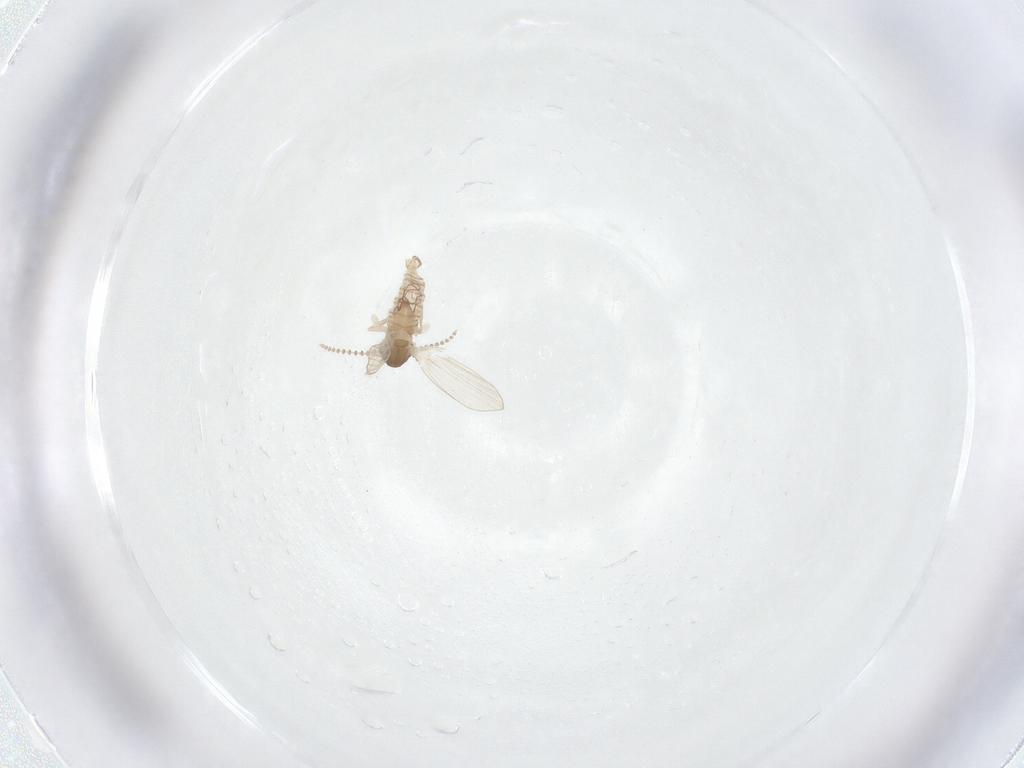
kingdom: Animalia
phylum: Arthropoda
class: Insecta
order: Diptera
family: Psychodidae
